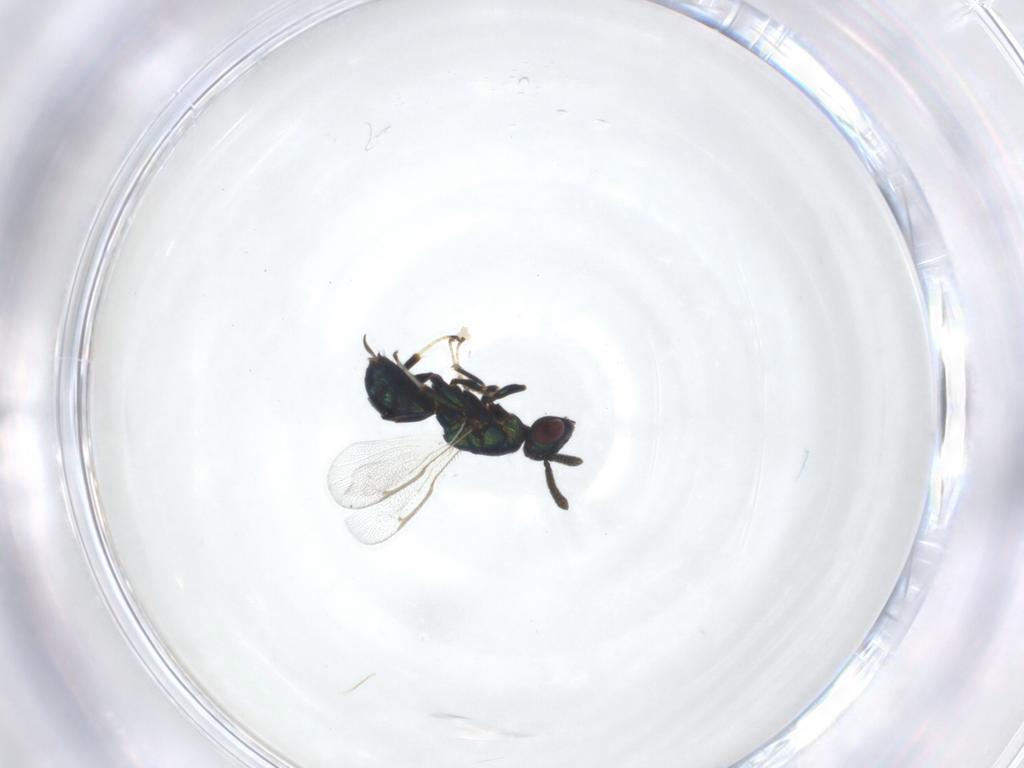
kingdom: Animalia
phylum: Arthropoda
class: Insecta
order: Hymenoptera
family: Torymidae
